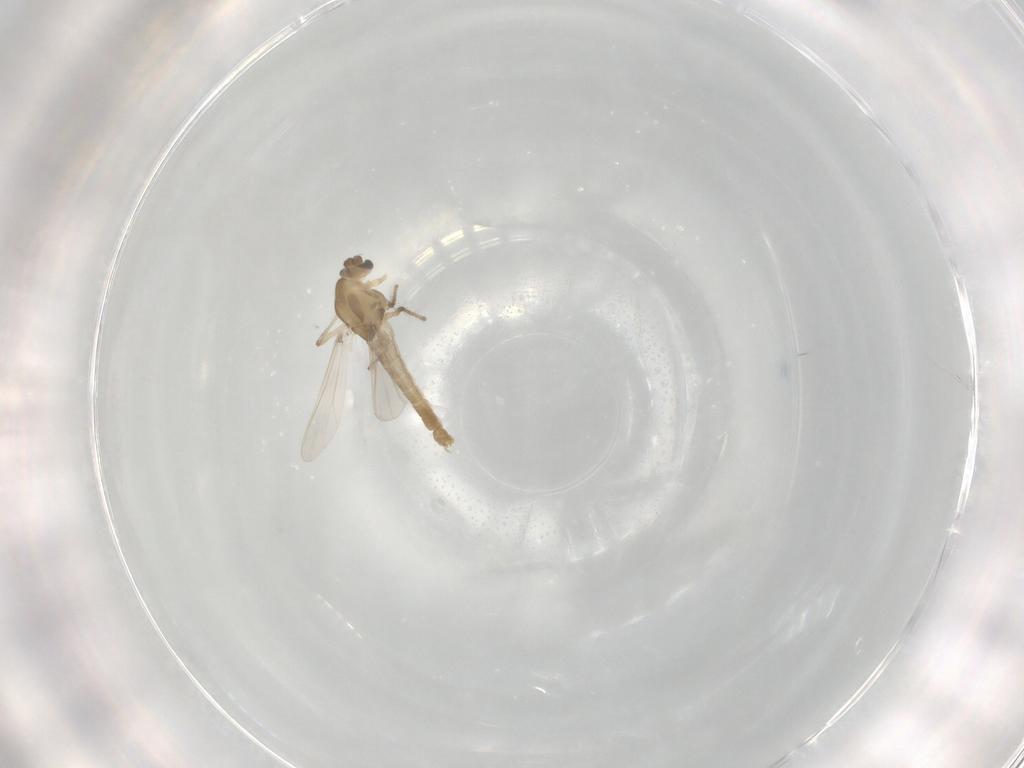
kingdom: Animalia
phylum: Arthropoda
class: Insecta
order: Diptera
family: Chironomidae
